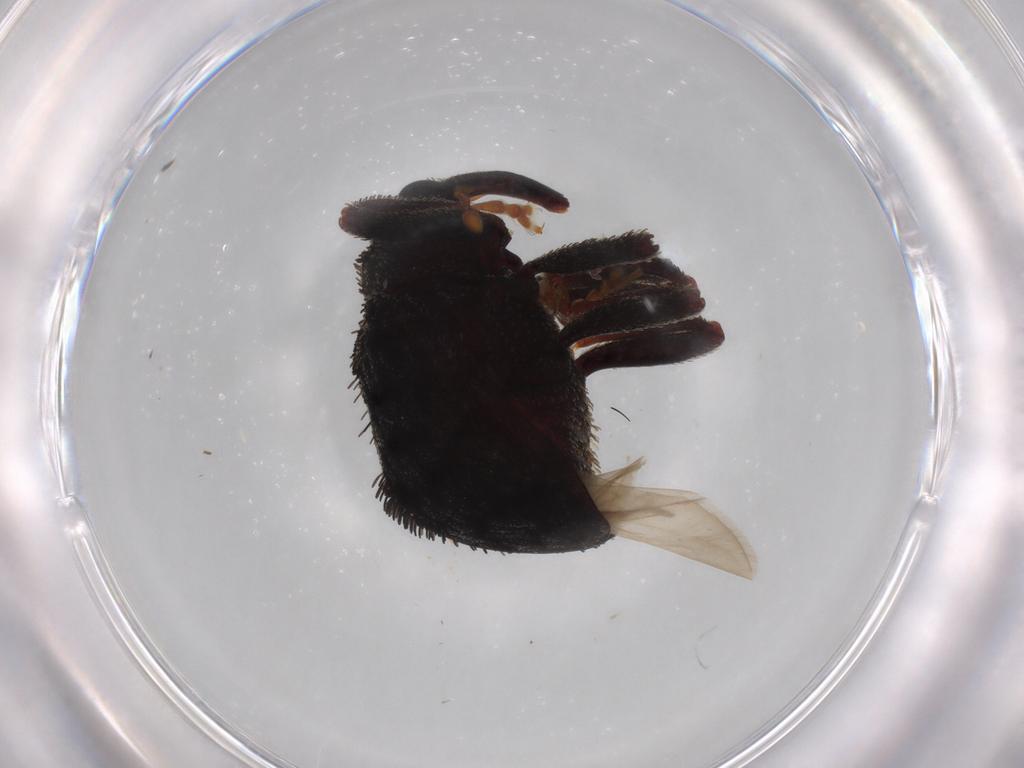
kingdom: Animalia
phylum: Arthropoda
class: Insecta
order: Coleoptera
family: Curculionidae
